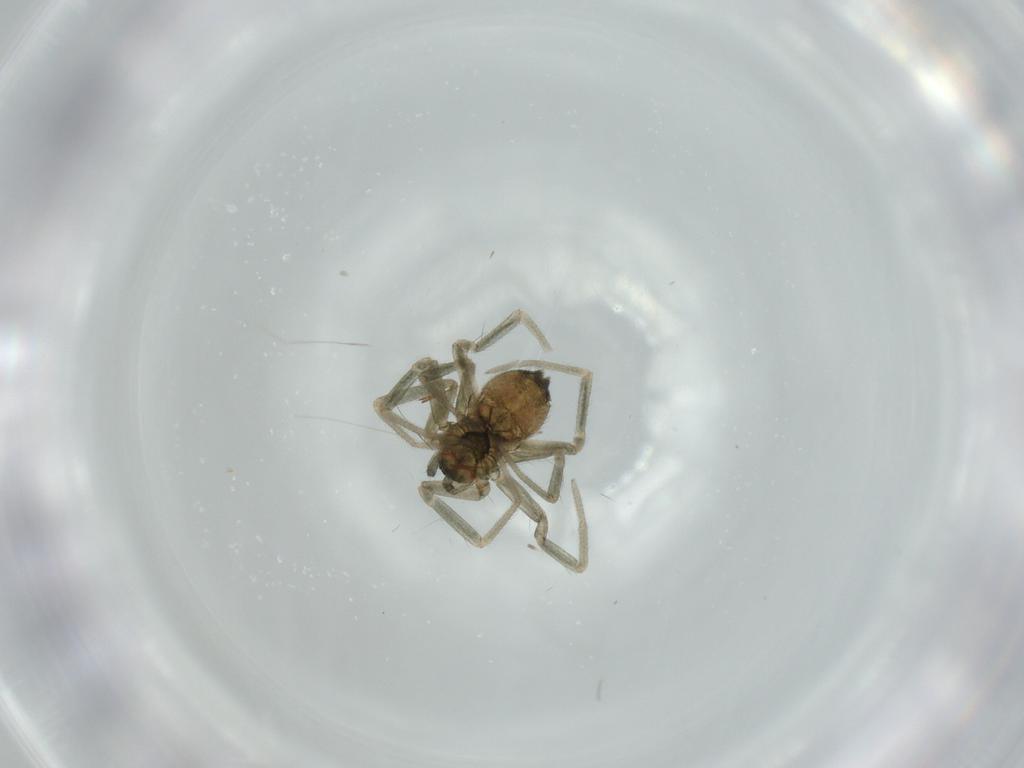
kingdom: Animalia
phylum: Arthropoda
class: Arachnida
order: Araneae
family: Linyphiidae
